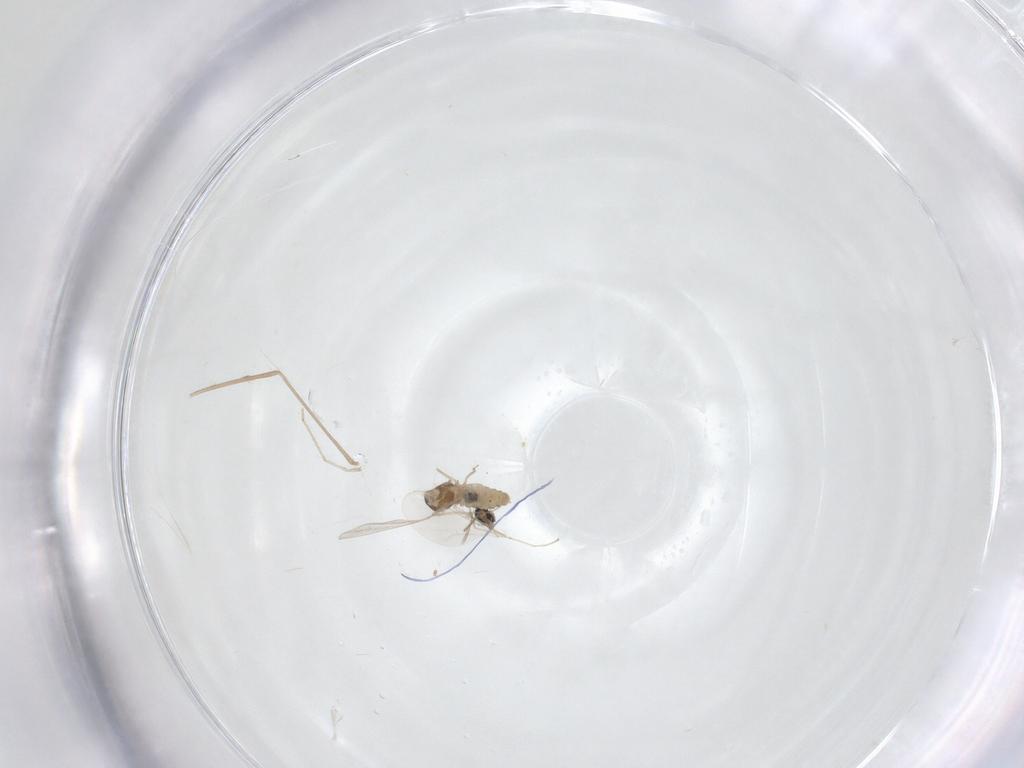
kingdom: Animalia
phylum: Arthropoda
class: Insecta
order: Diptera
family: Cecidomyiidae
